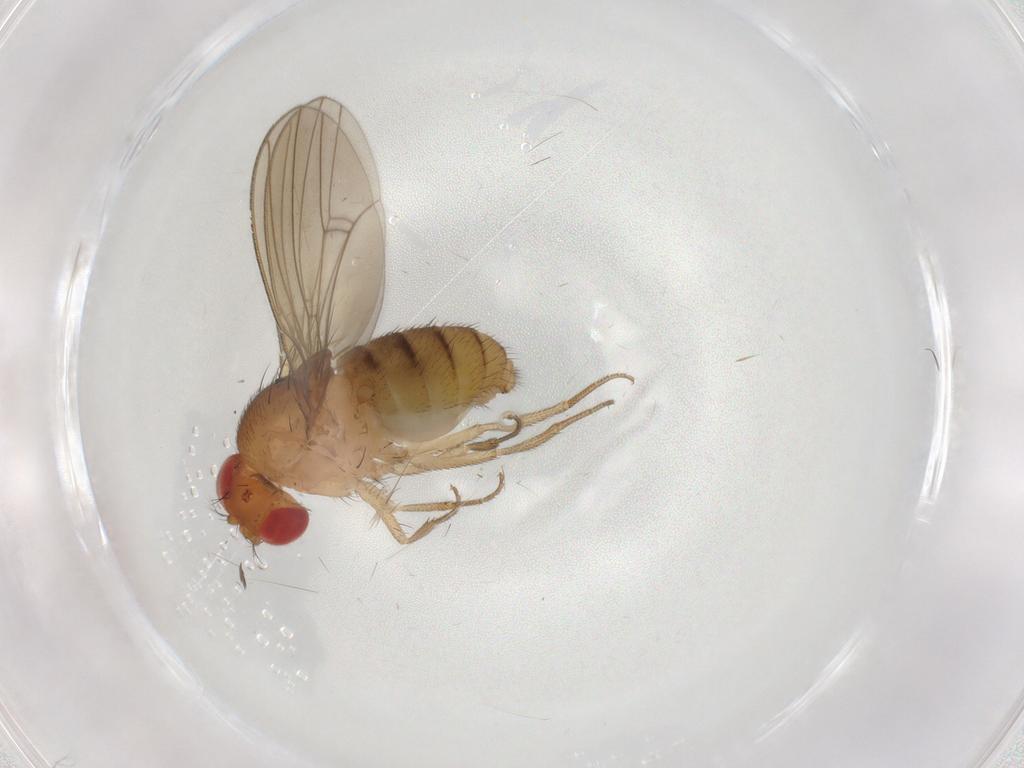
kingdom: Animalia
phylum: Arthropoda
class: Insecta
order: Diptera
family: Drosophilidae
